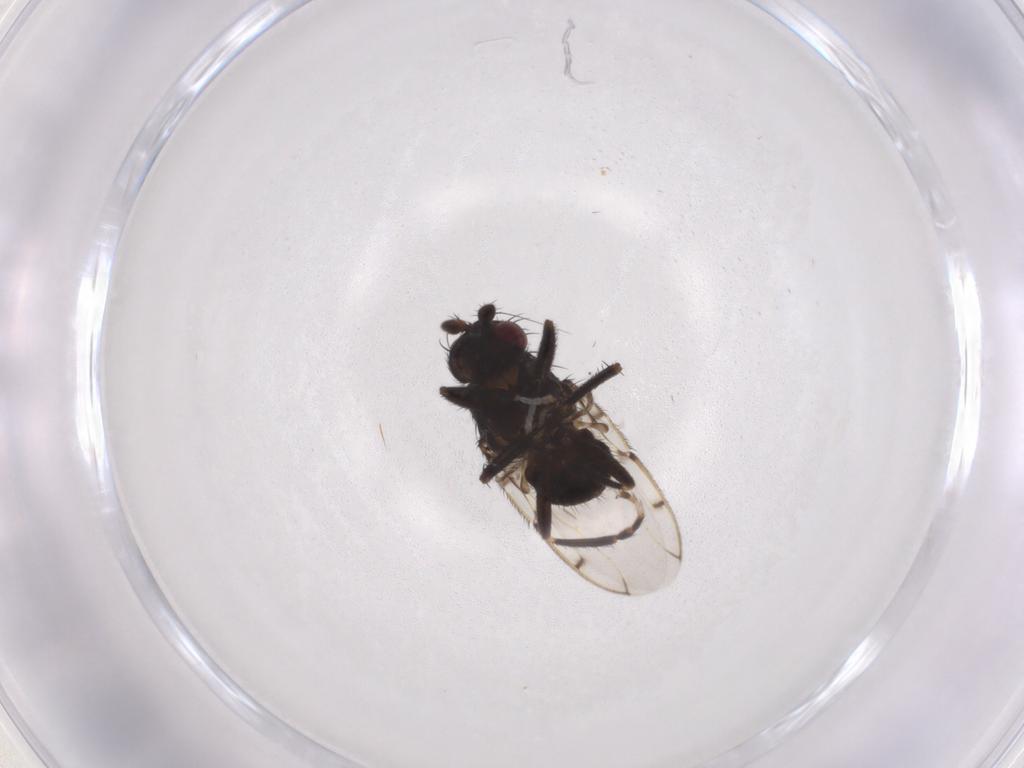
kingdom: Animalia
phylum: Arthropoda
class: Insecta
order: Diptera
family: Sphaeroceridae
